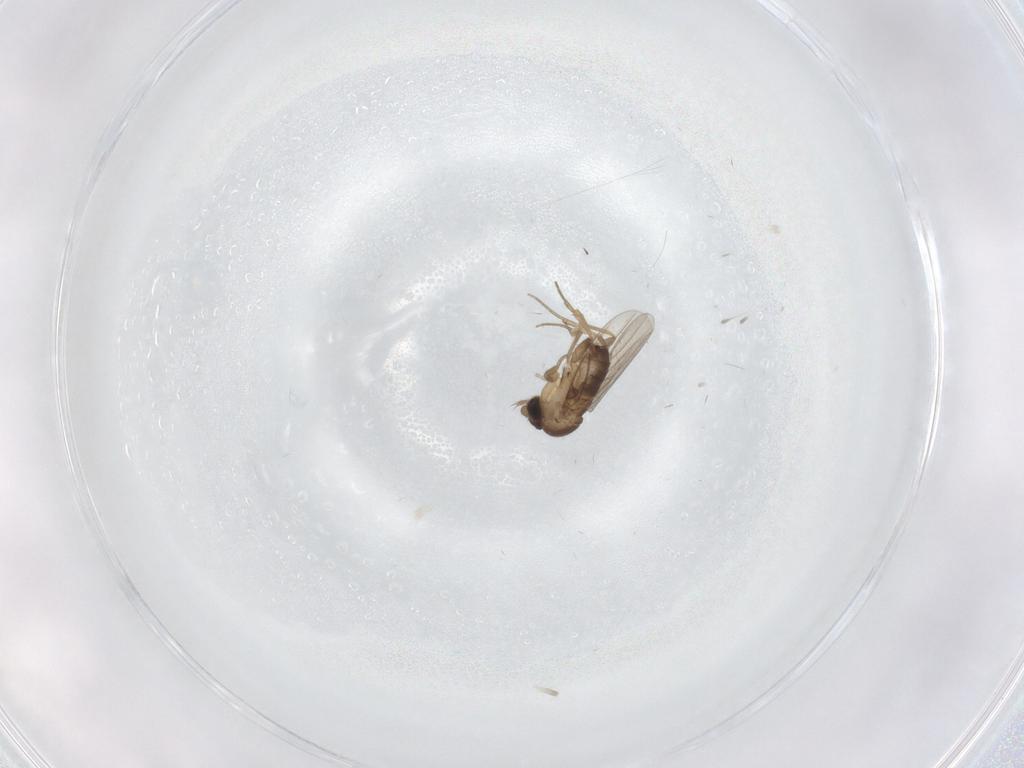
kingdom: Animalia
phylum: Arthropoda
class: Insecta
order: Diptera
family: Phoridae
